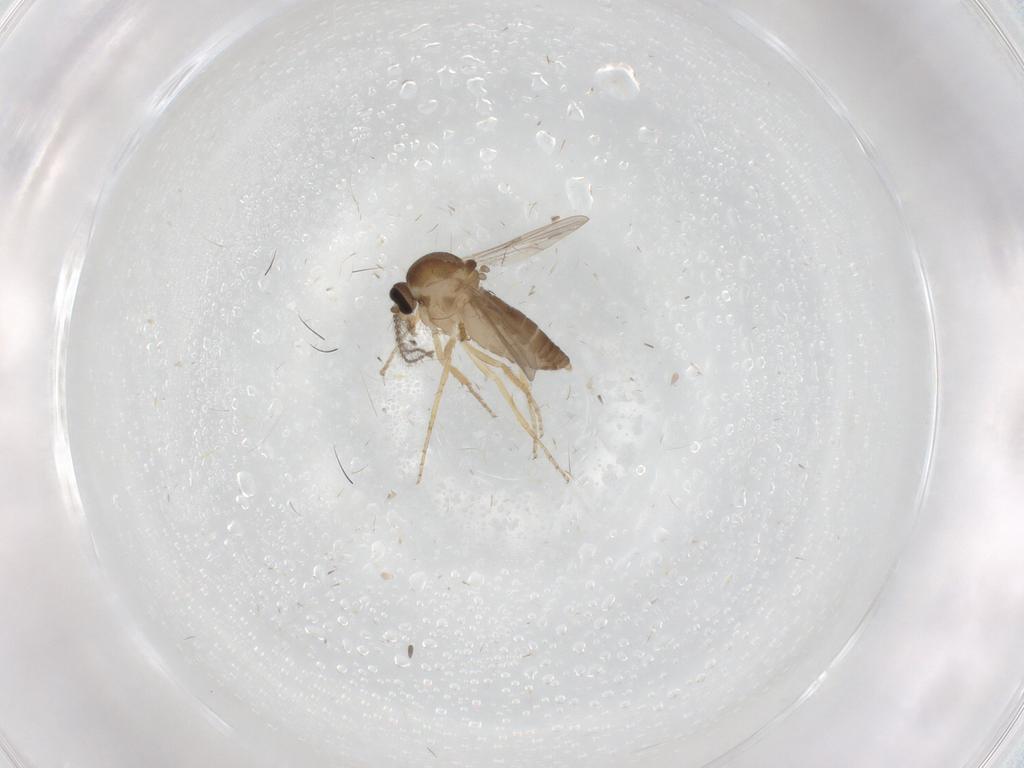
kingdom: Animalia
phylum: Arthropoda
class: Insecta
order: Diptera
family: Ceratopogonidae
